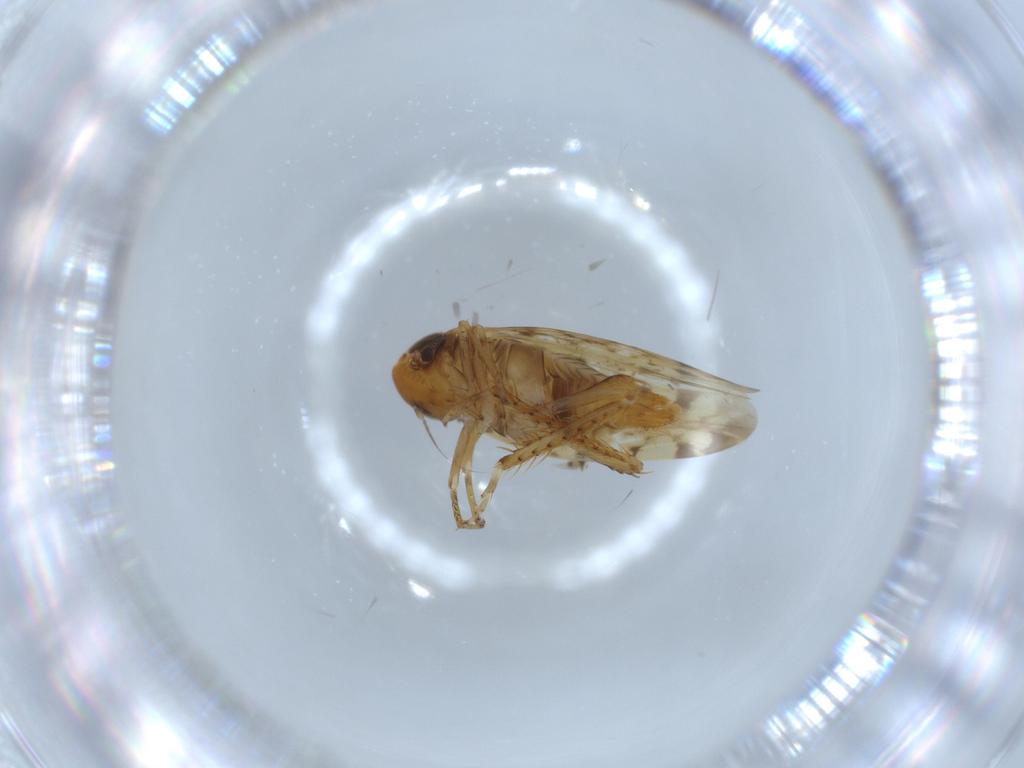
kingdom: Animalia
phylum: Arthropoda
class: Insecta
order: Hemiptera
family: Cicadellidae
